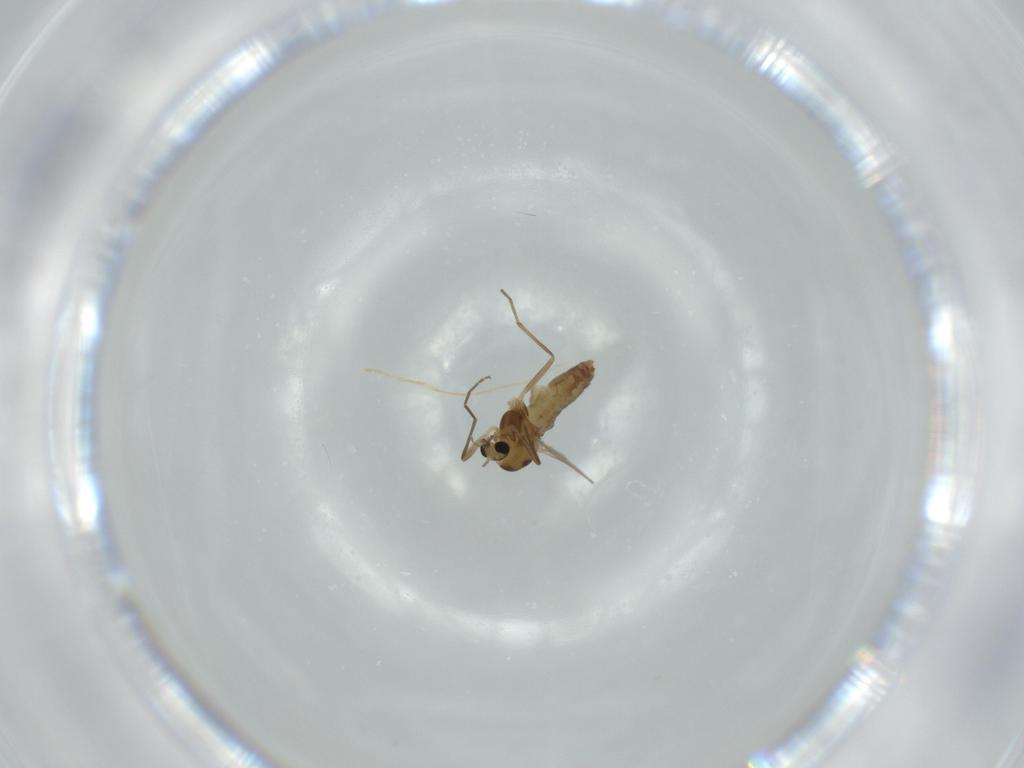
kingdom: Animalia
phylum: Arthropoda
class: Insecta
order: Diptera
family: Chironomidae
